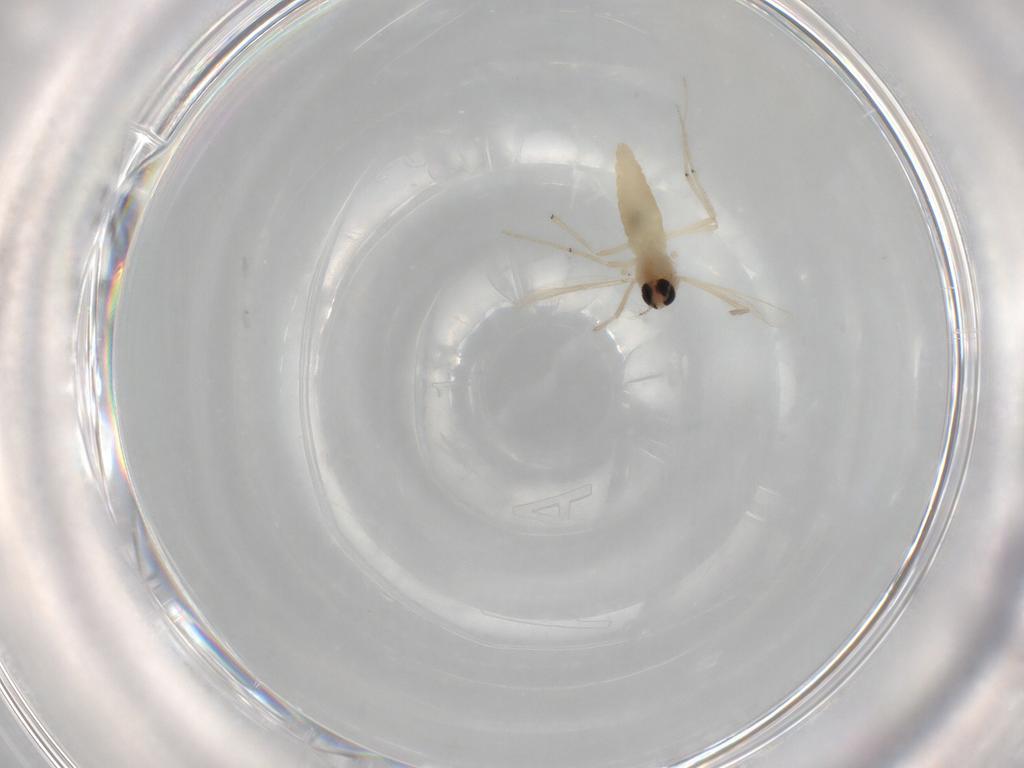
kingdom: Animalia
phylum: Arthropoda
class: Insecta
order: Diptera
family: Chironomidae
